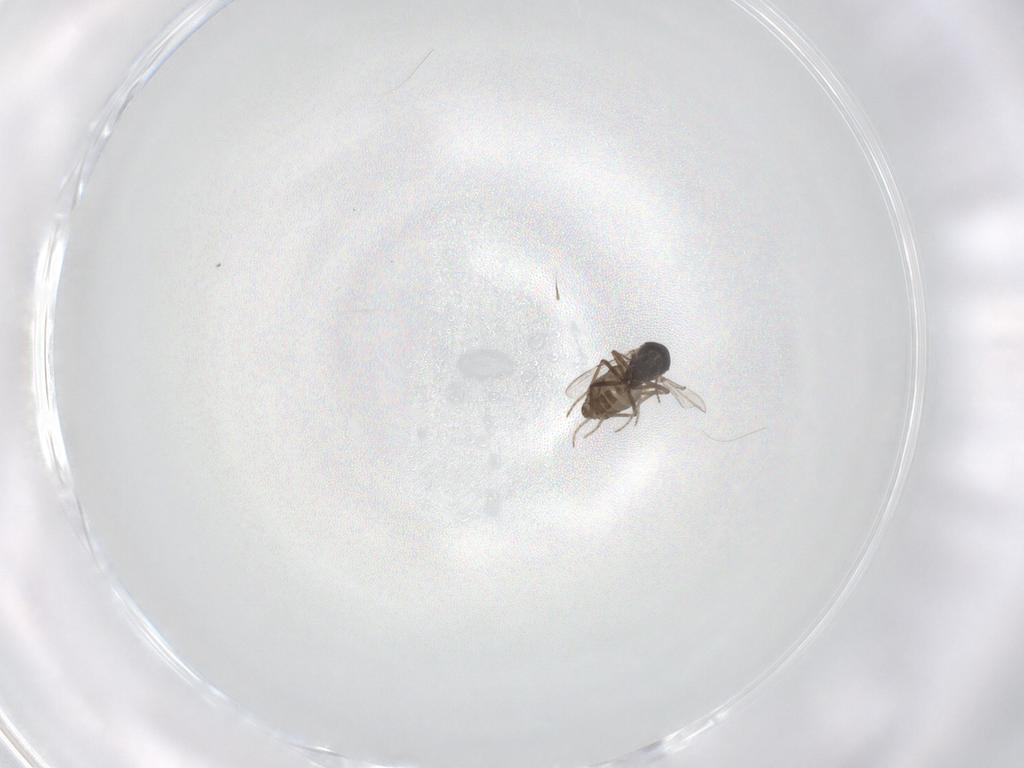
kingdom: Animalia
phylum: Arthropoda
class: Insecta
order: Diptera
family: Ceratopogonidae
